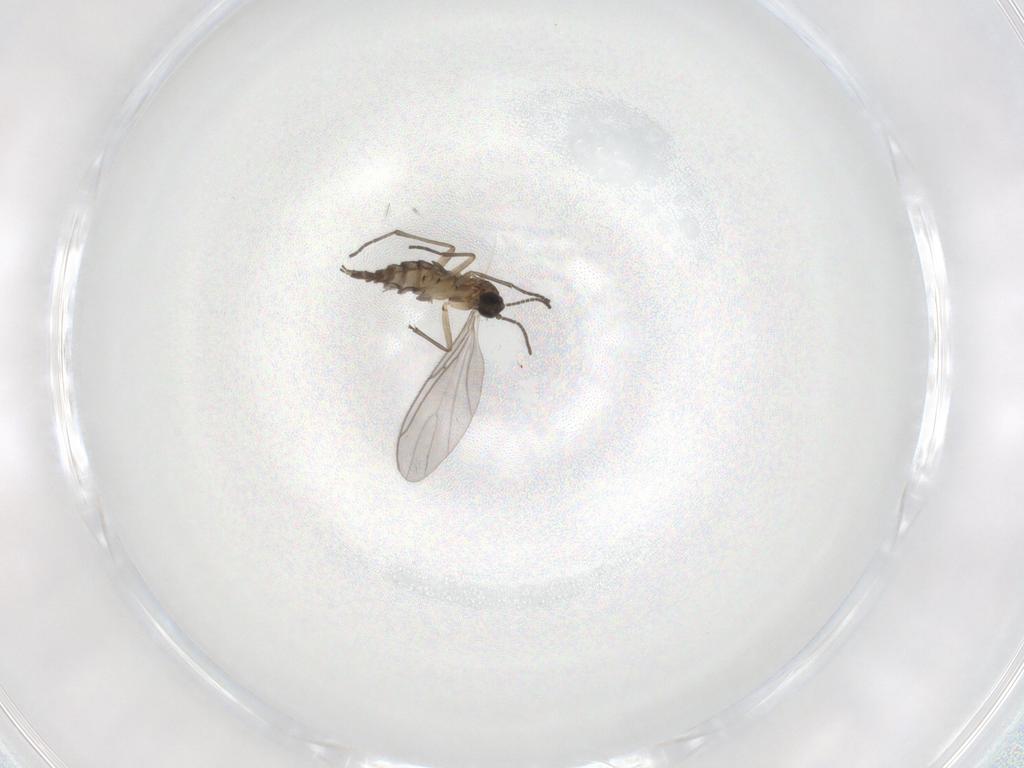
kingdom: Animalia
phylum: Arthropoda
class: Insecta
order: Diptera
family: Sciaridae
